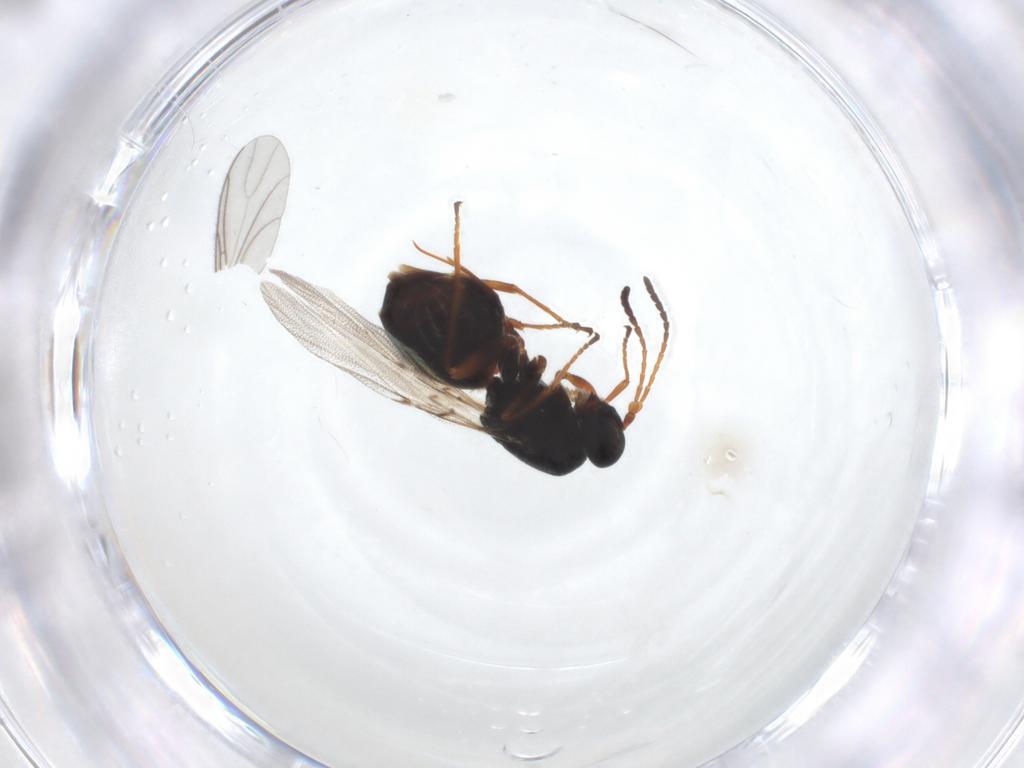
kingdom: Animalia
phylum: Arthropoda
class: Insecta
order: Hymenoptera
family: Cynipidae
